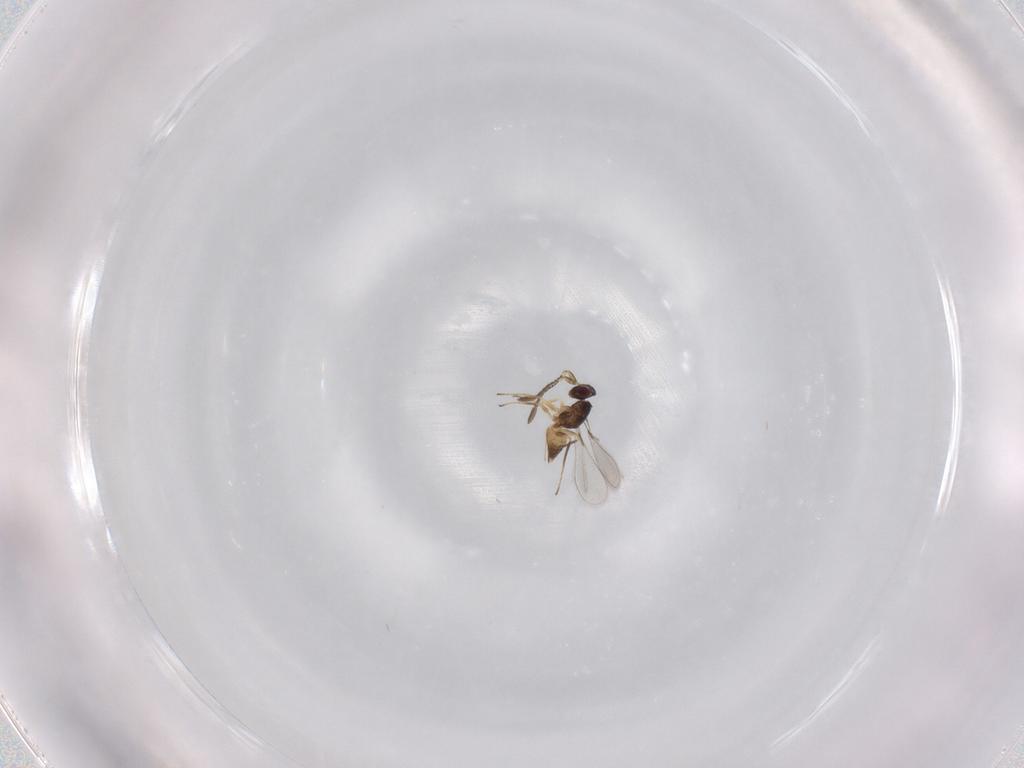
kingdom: Animalia
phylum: Arthropoda
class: Insecta
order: Hymenoptera
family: Mymaridae
